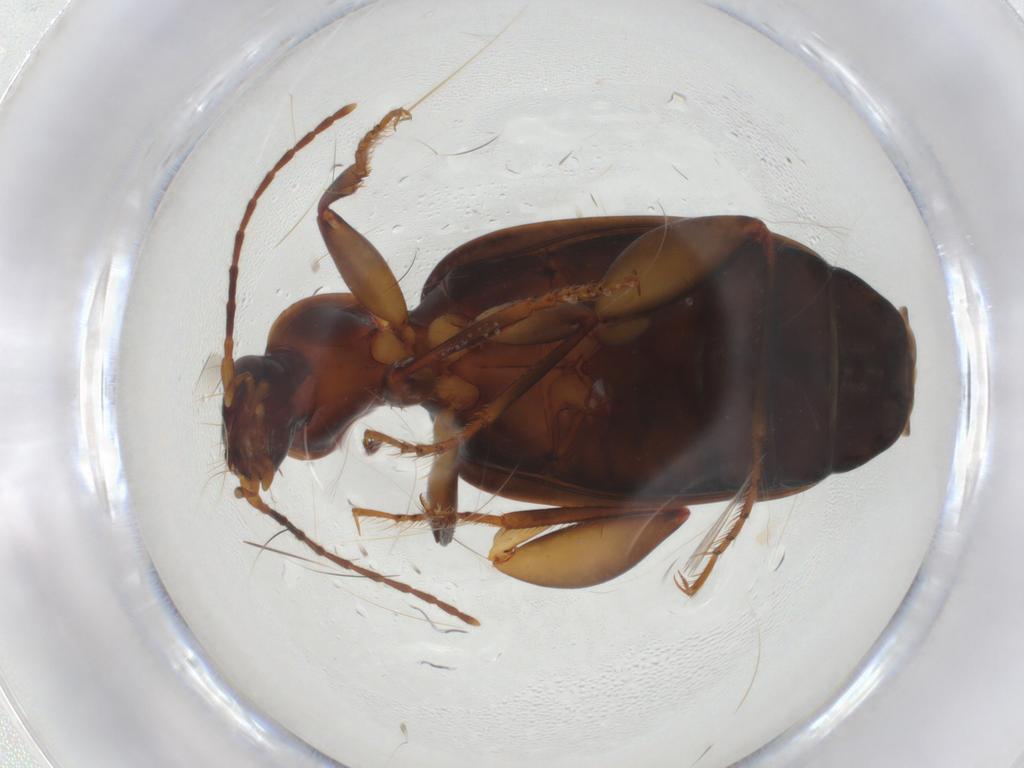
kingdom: Animalia
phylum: Arthropoda
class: Insecta
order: Coleoptera
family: Carabidae
